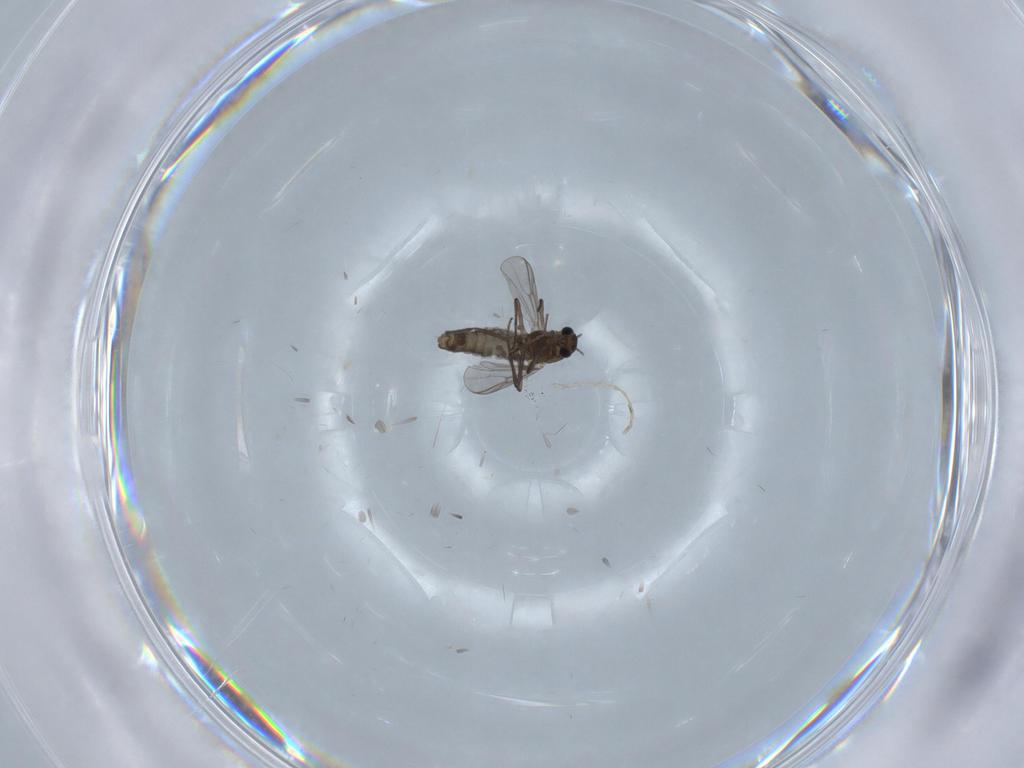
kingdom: Animalia
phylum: Arthropoda
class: Insecta
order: Diptera
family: Chironomidae
